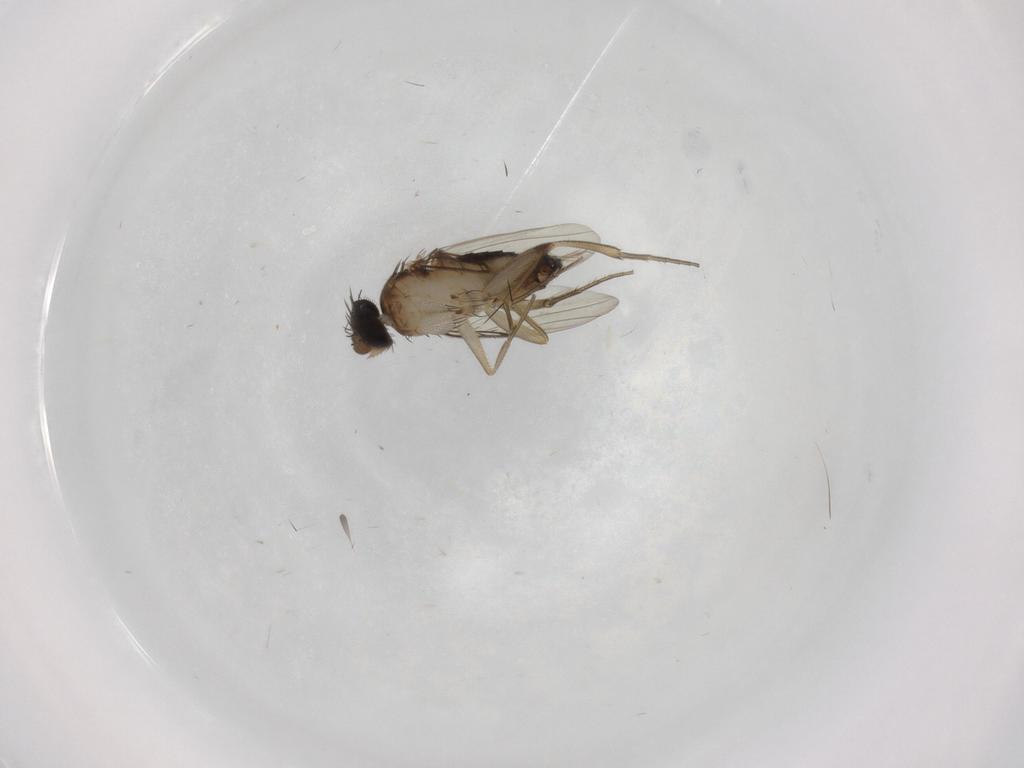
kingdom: Animalia
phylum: Arthropoda
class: Insecta
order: Diptera
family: Phoridae
